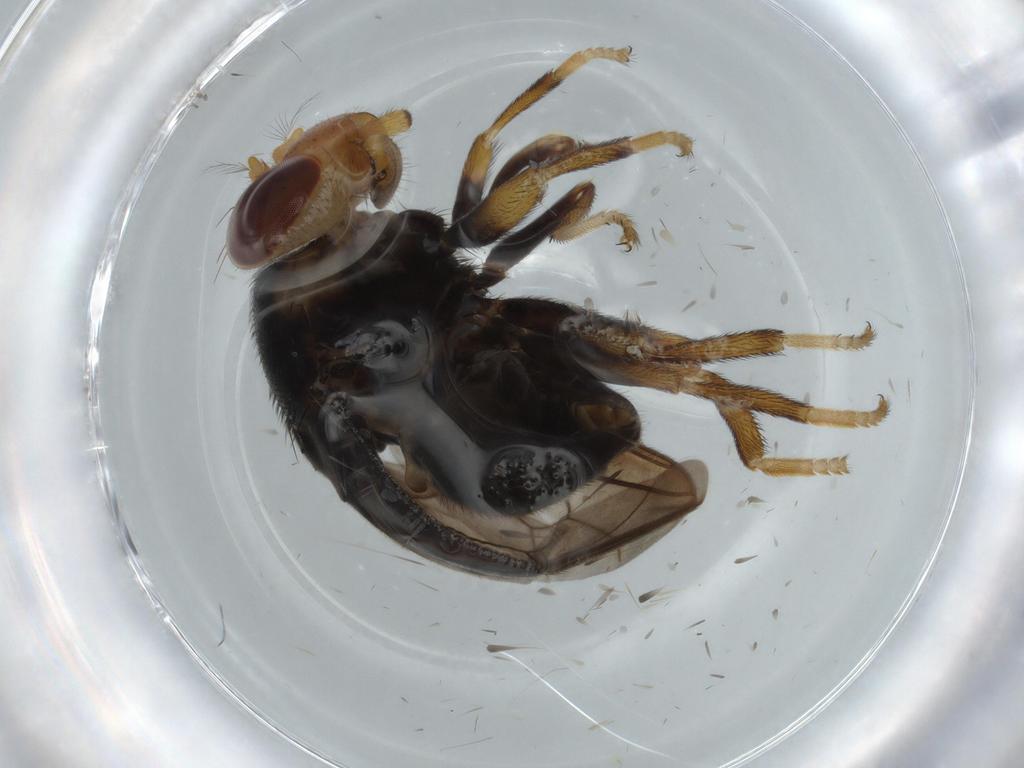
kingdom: Animalia
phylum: Arthropoda
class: Insecta
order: Diptera
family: Ulidiidae
